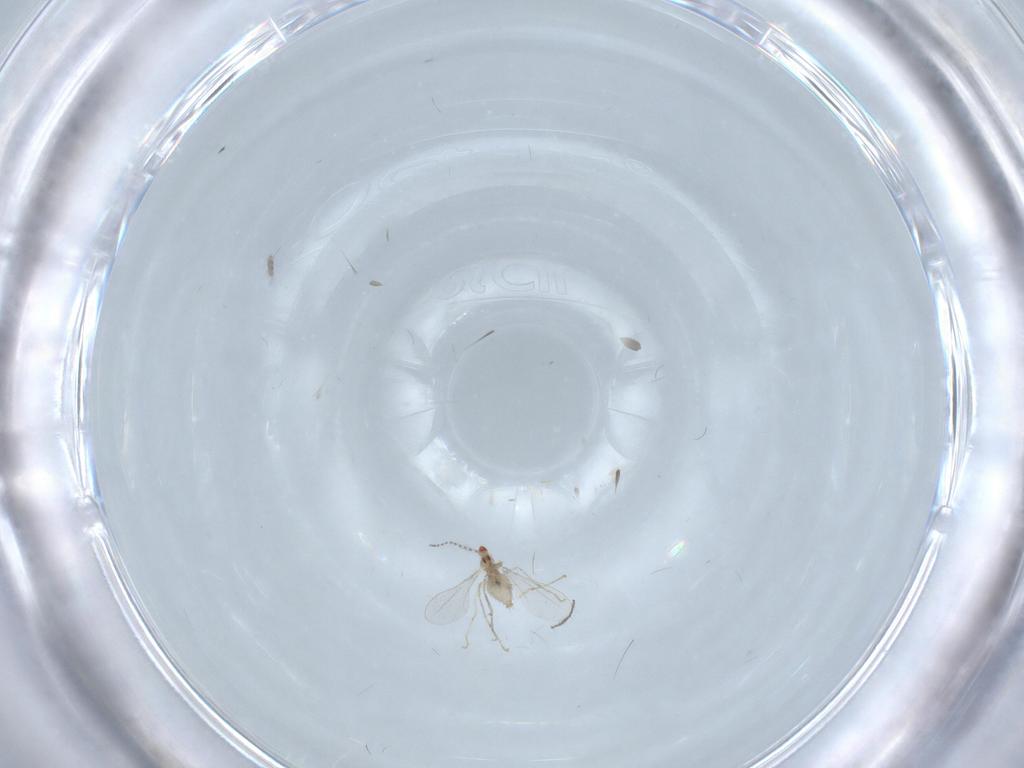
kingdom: Animalia
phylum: Arthropoda
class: Insecta
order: Diptera
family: Cecidomyiidae
